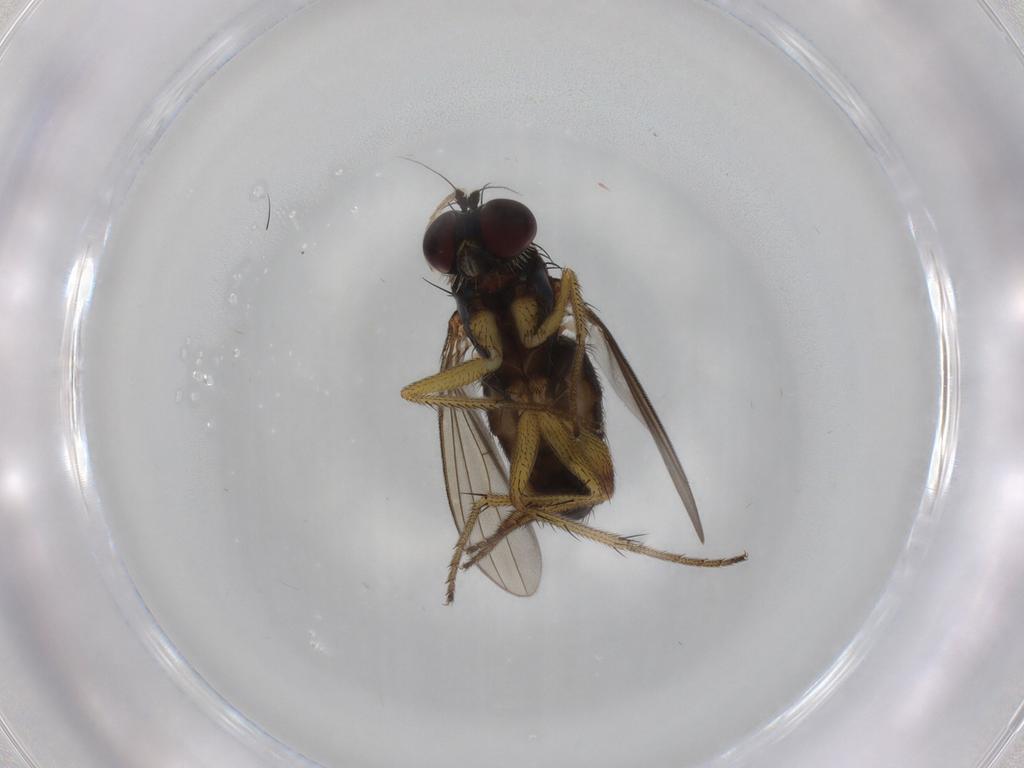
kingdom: Animalia
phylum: Arthropoda
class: Insecta
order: Diptera
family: Dolichopodidae
